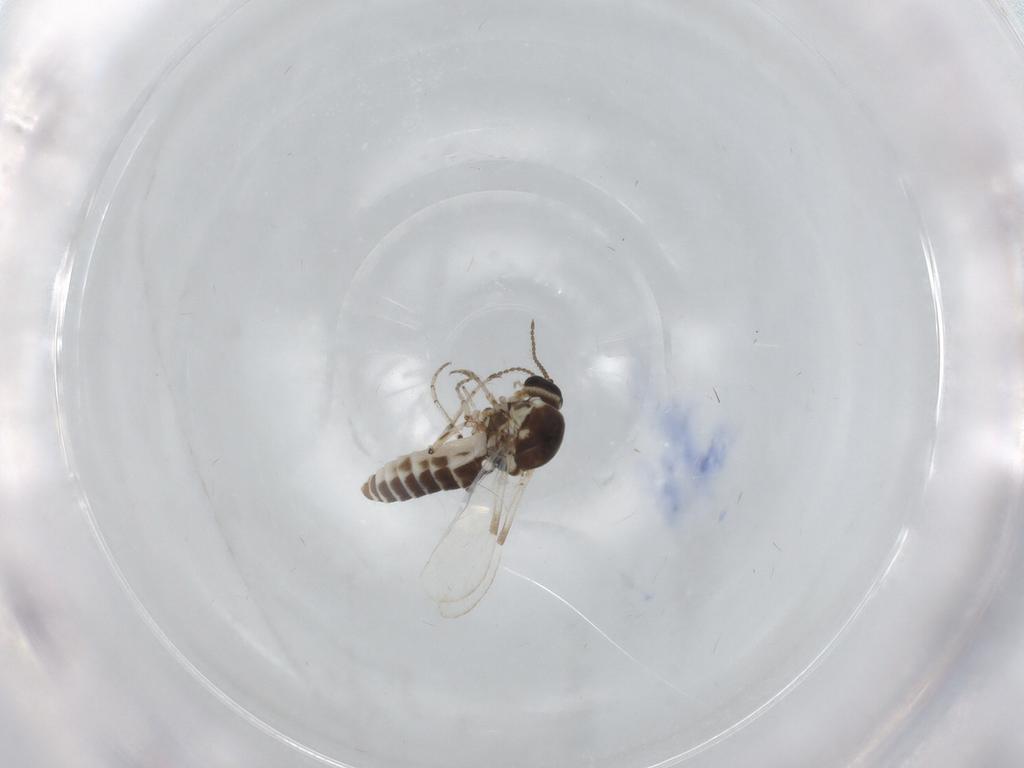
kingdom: Animalia
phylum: Arthropoda
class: Insecta
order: Diptera
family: Ceratopogonidae
